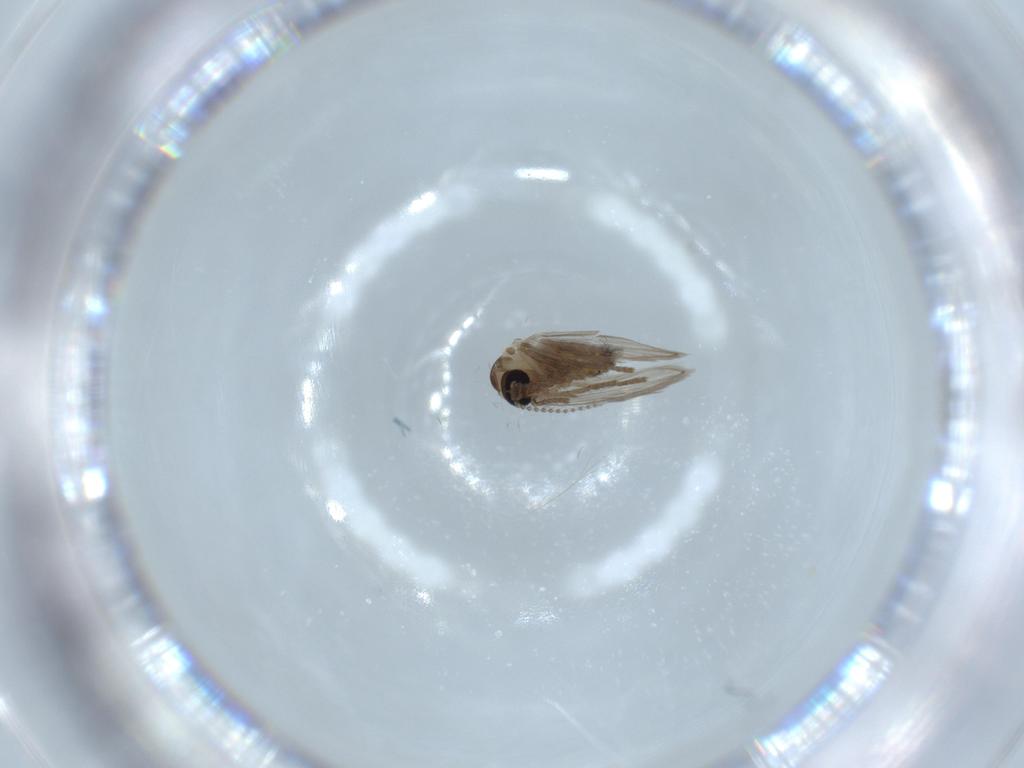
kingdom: Animalia
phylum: Arthropoda
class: Insecta
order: Diptera
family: Psychodidae
